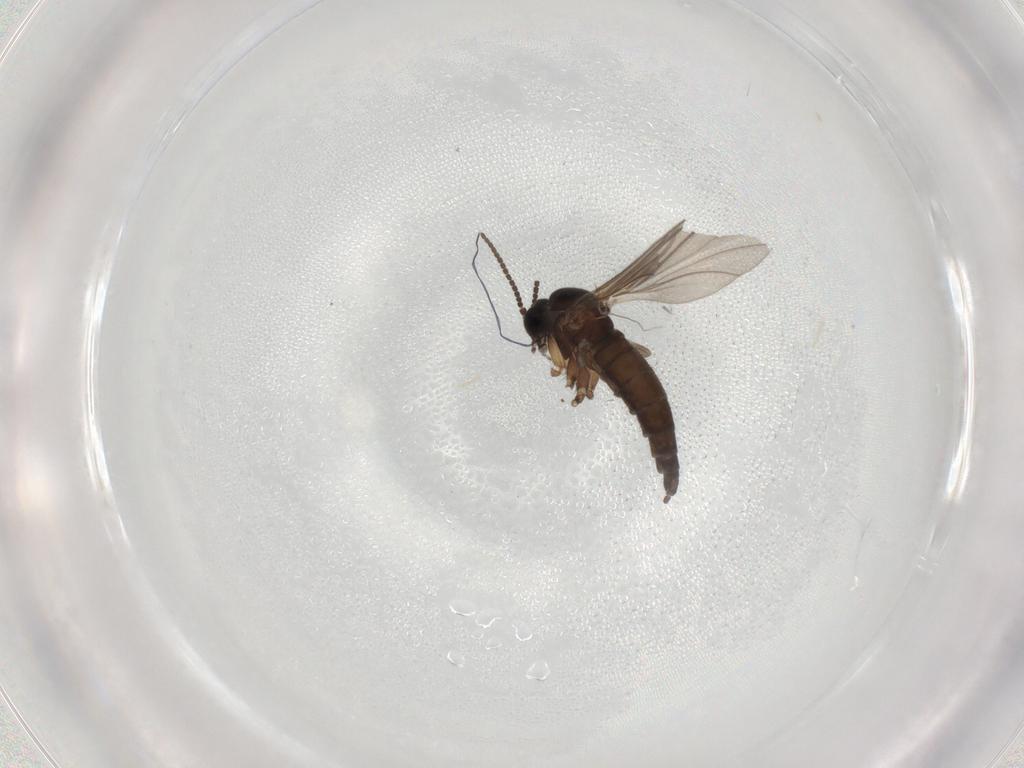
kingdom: Animalia
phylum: Arthropoda
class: Insecta
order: Diptera
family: Sciaridae
